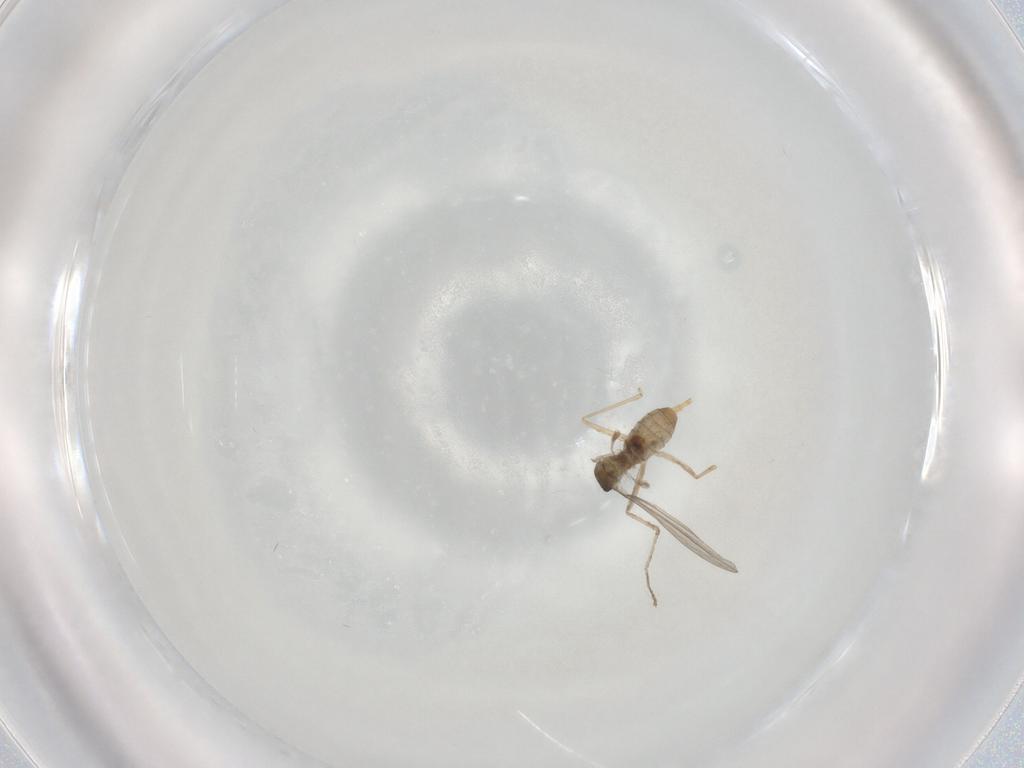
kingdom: Animalia
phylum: Arthropoda
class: Insecta
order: Diptera
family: Cecidomyiidae
